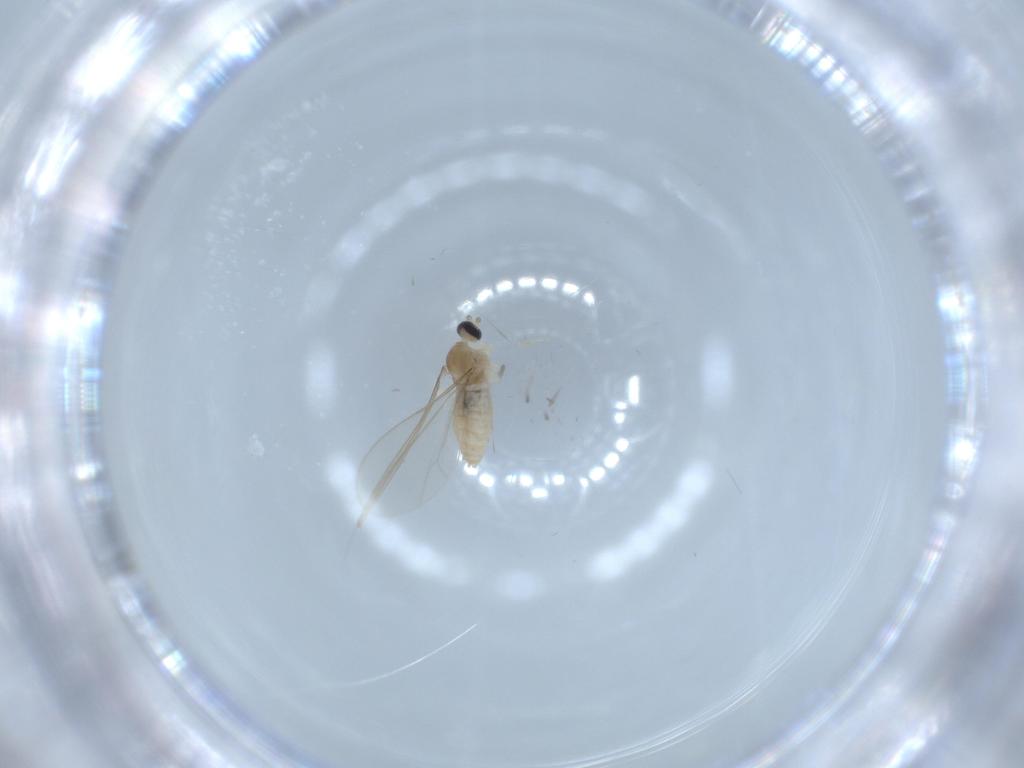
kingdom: Animalia
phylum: Arthropoda
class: Insecta
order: Diptera
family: Cecidomyiidae
